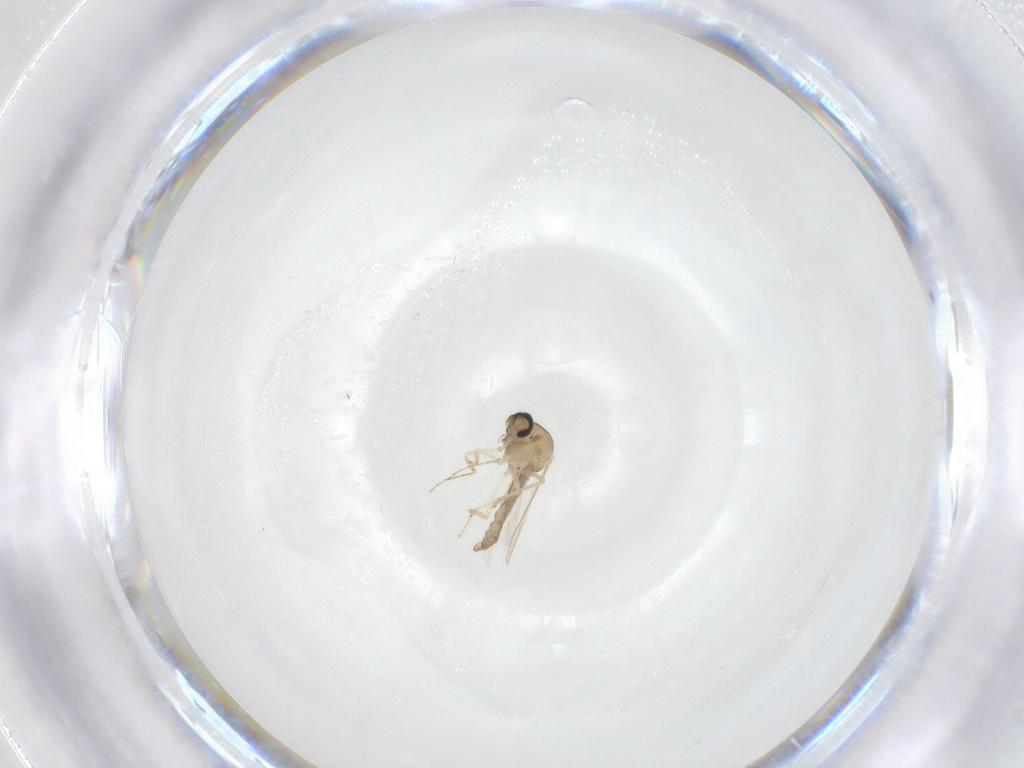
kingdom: Animalia
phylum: Arthropoda
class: Insecta
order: Diptera
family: Ceratopogonidae
